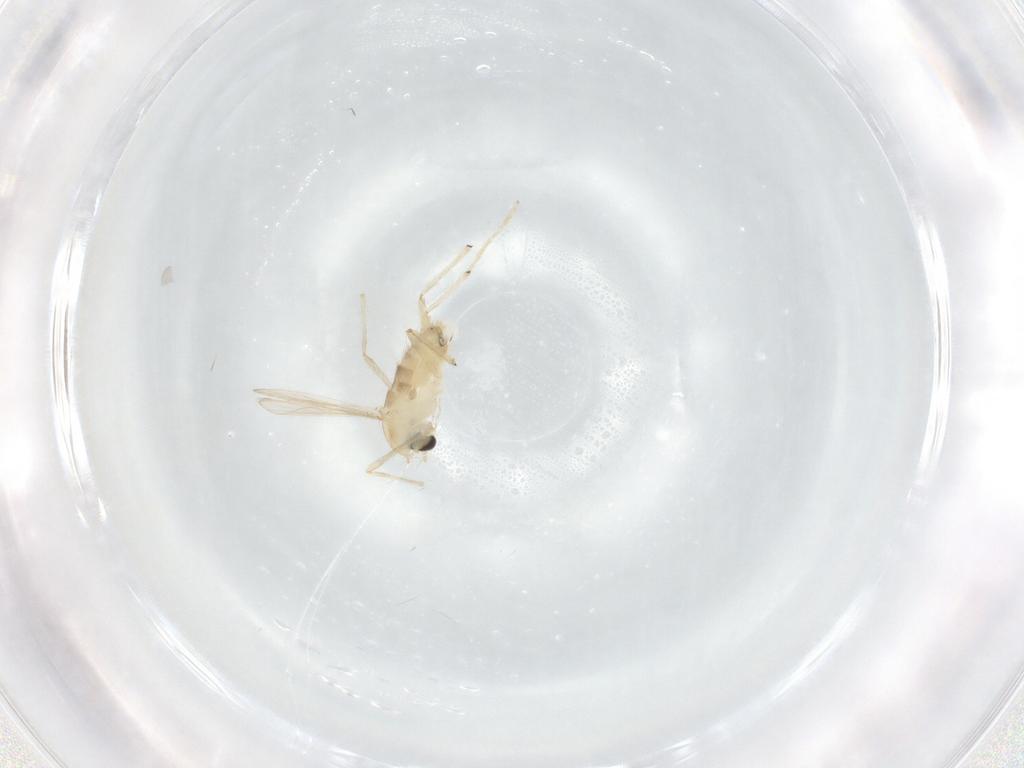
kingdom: Animalia
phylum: Arthropoda
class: Insecta
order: Diptera
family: Chironomidae
